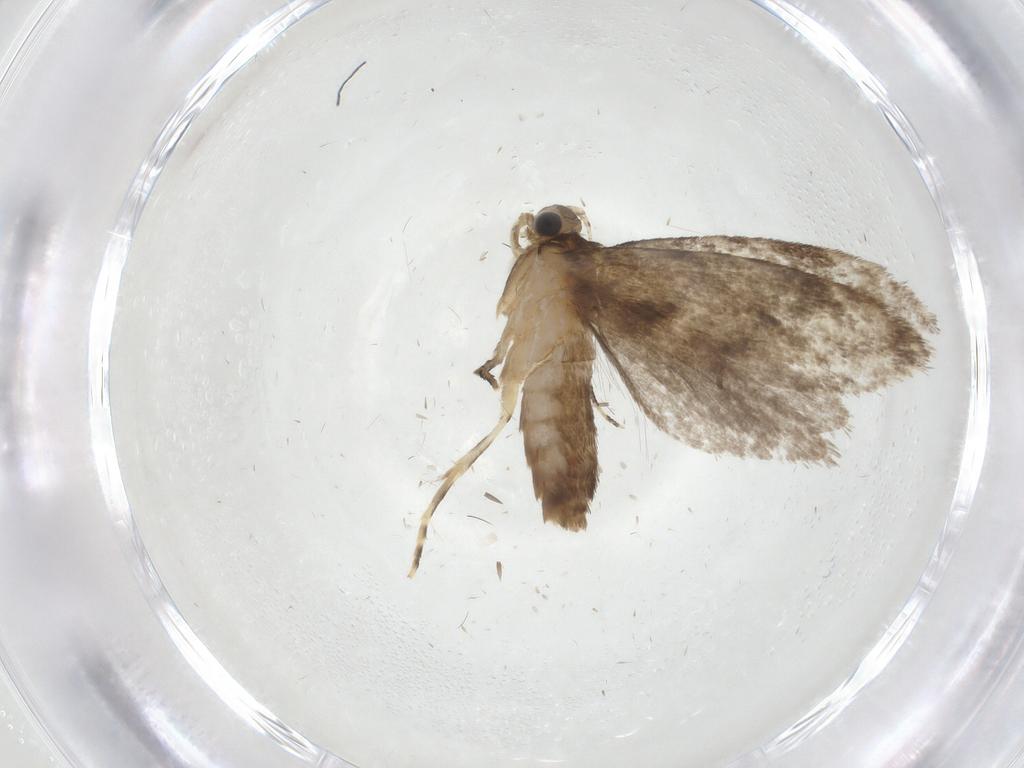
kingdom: Animalia
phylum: Arthropoda
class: Insecta
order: Lepidoptera
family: Tineidae
